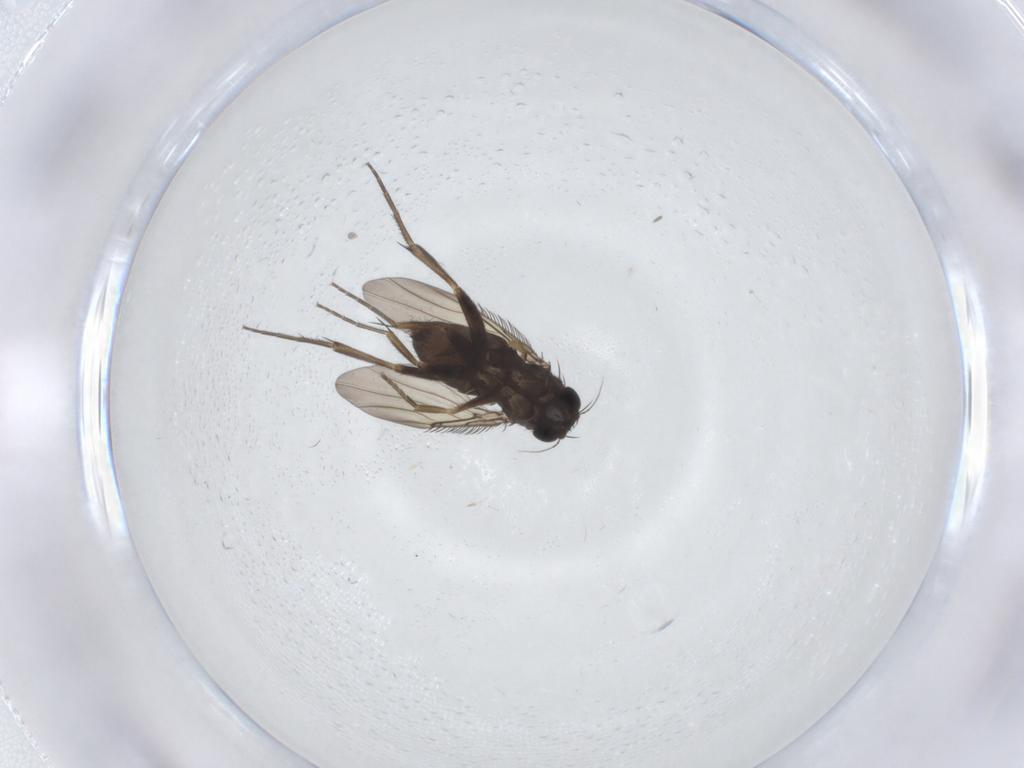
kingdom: Animalia
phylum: Arthropoda
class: Insecta
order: Diptera
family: Phoridae
